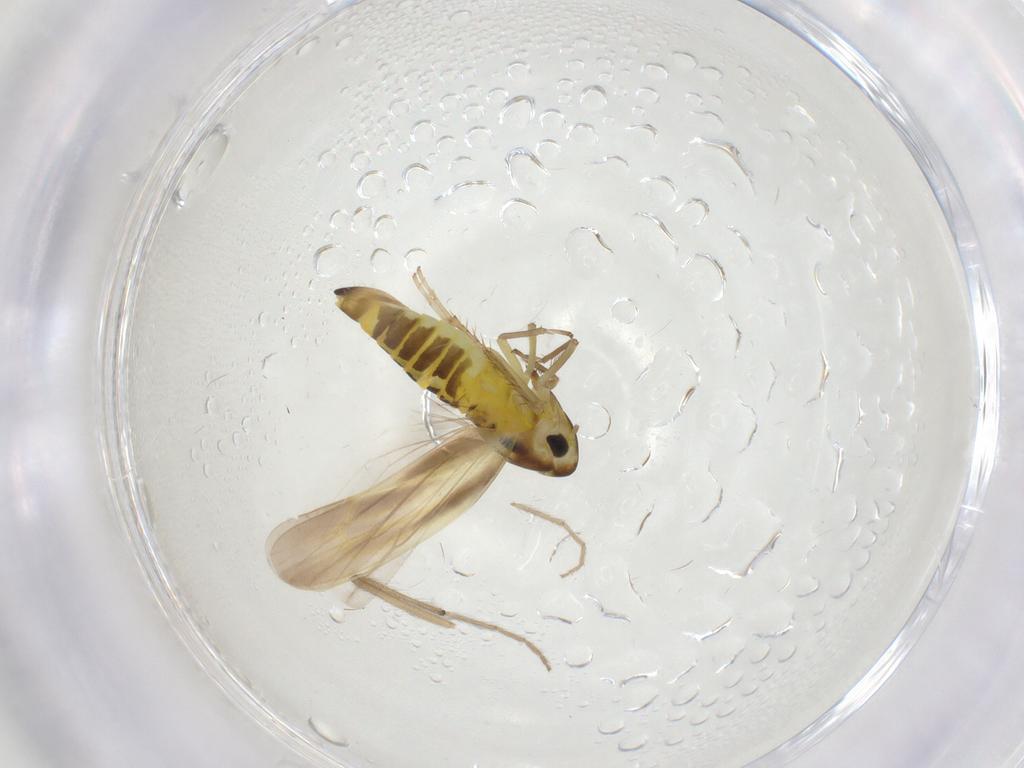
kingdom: Animalia
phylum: Arthropoda
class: Insecta
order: Hemiptera
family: Cicadellidae
